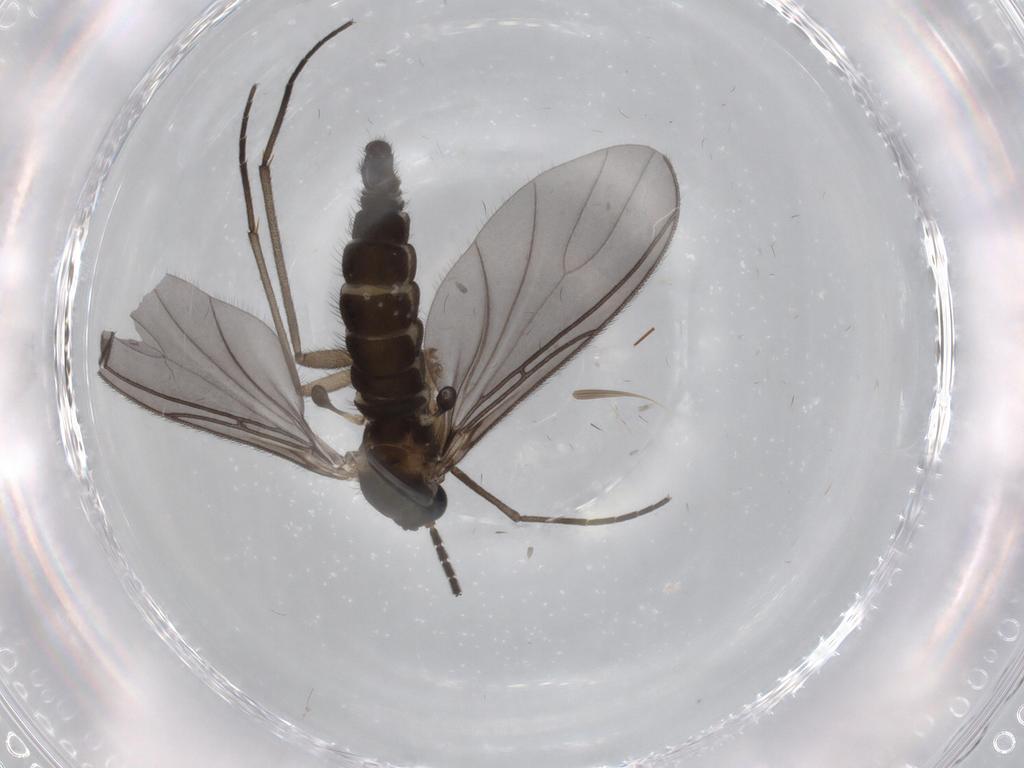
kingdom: Animalia
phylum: Arthropoda
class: Insecta
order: Diptera
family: Sciaridae
